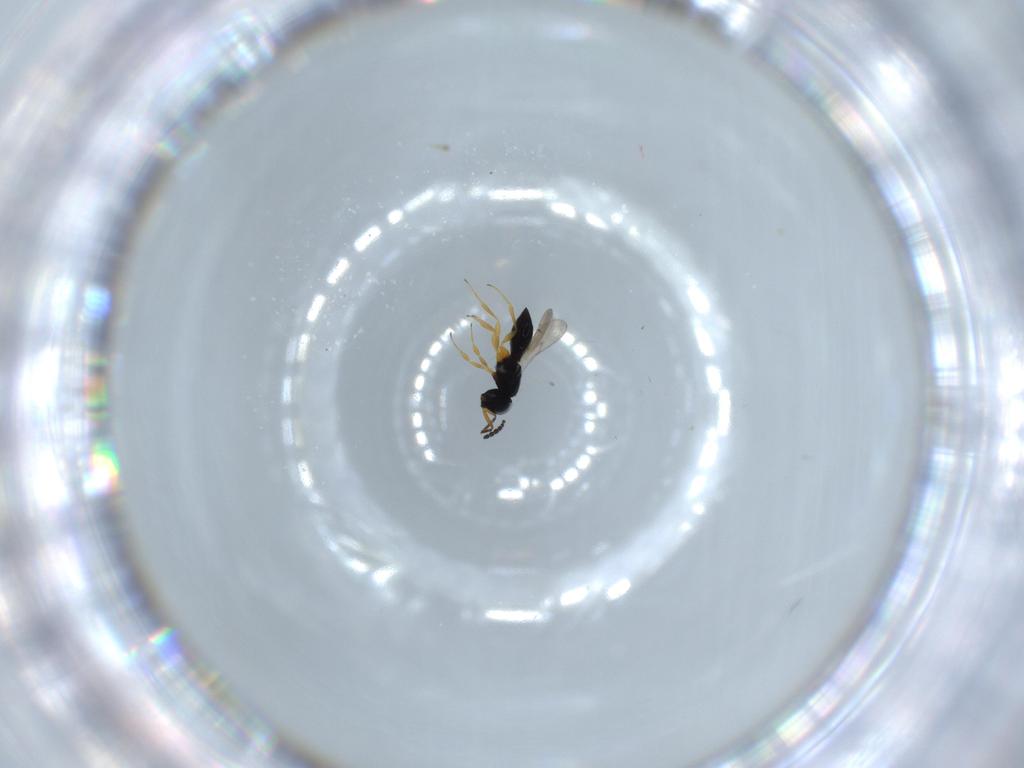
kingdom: Animalia
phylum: Arthropoda
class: Insecta
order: Hymenoptera
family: Scelionidae
